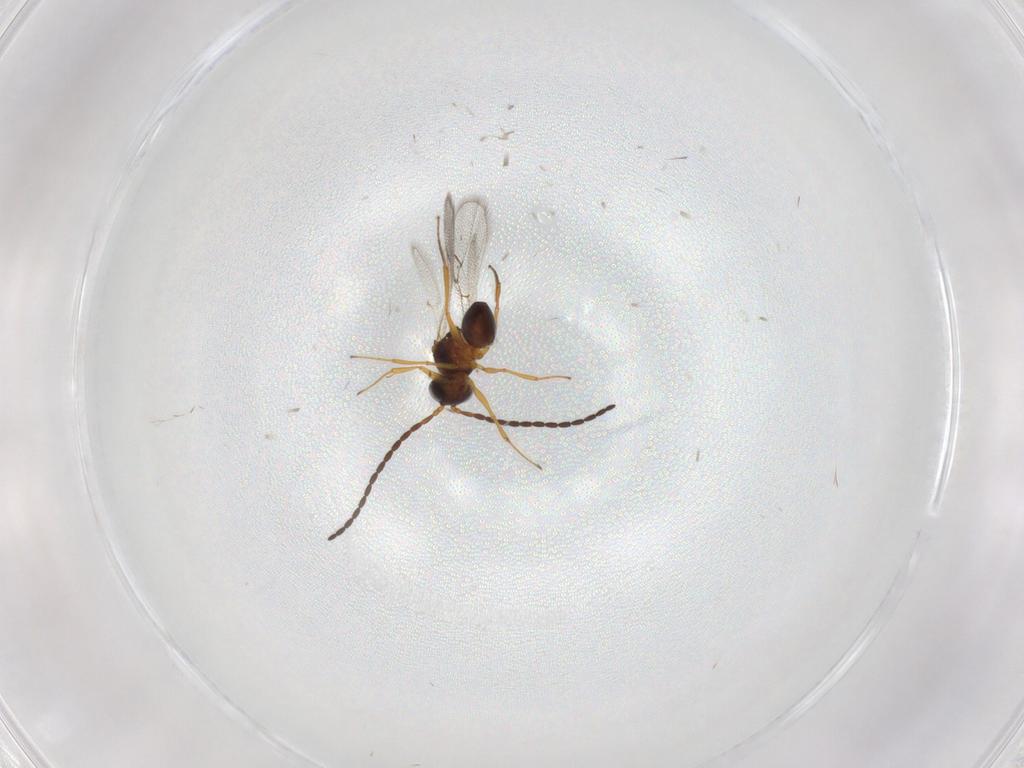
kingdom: Animalia
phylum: Arthropoda
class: Insecta
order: Hymenoptera
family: Figitidae
